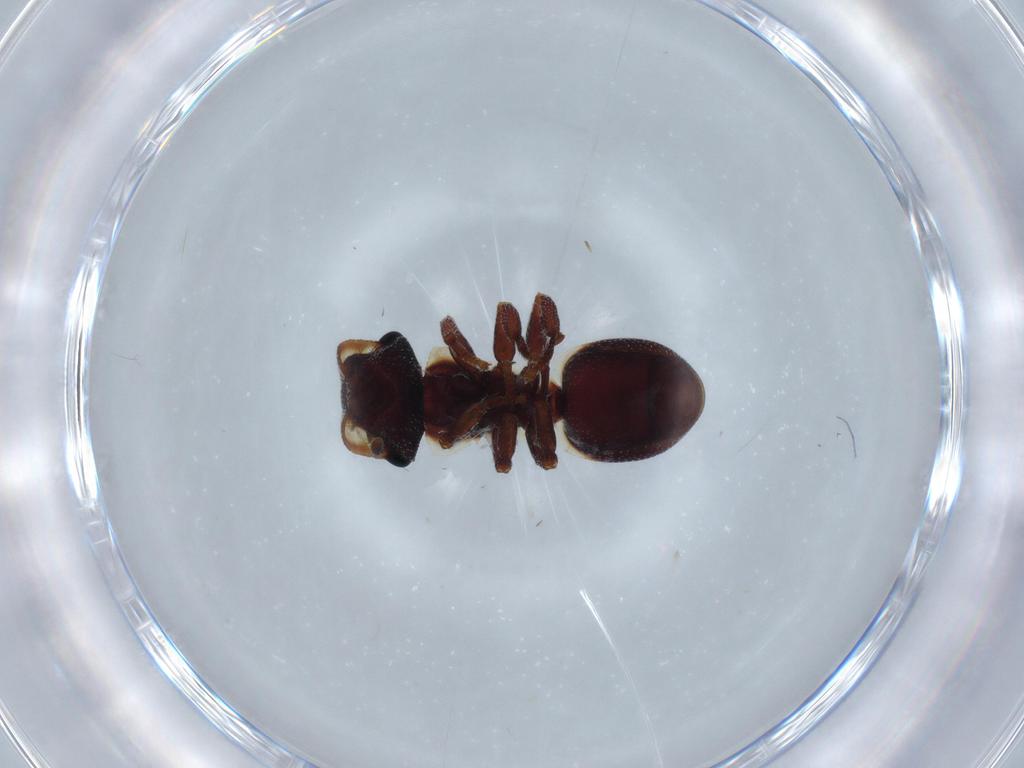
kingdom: Animalia
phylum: Arthropoda
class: Insecta
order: Hymenoptera
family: Formicidae
